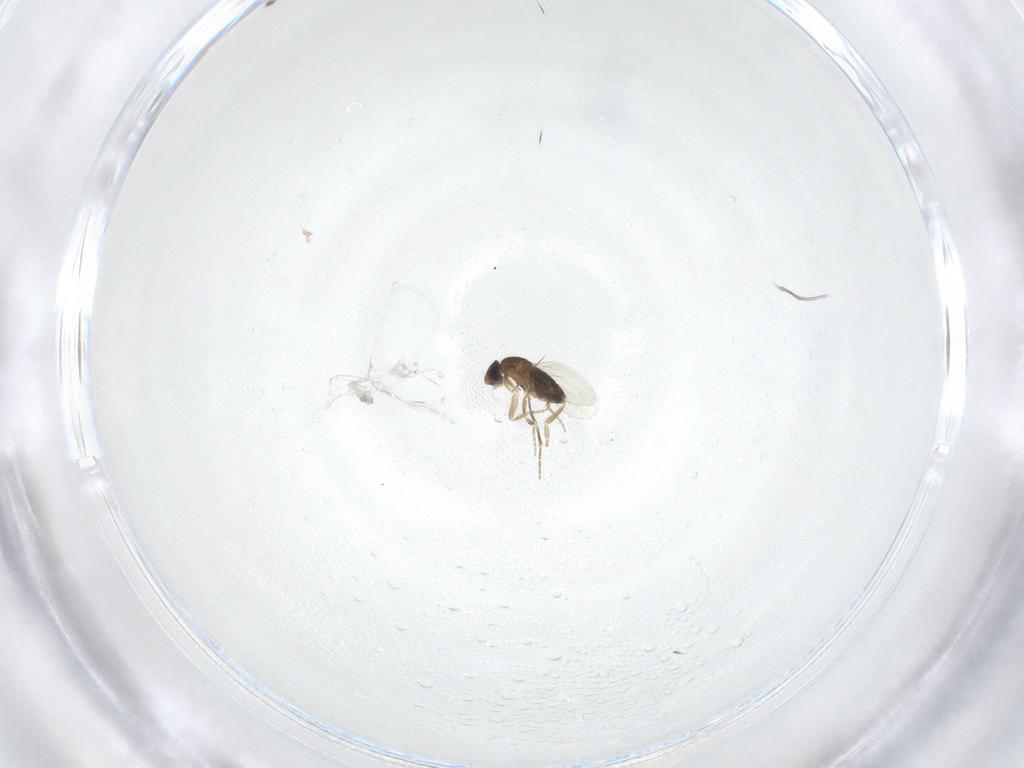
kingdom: Animalia
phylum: Arthropoda
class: Insecta
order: Diptera
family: Phoridae
